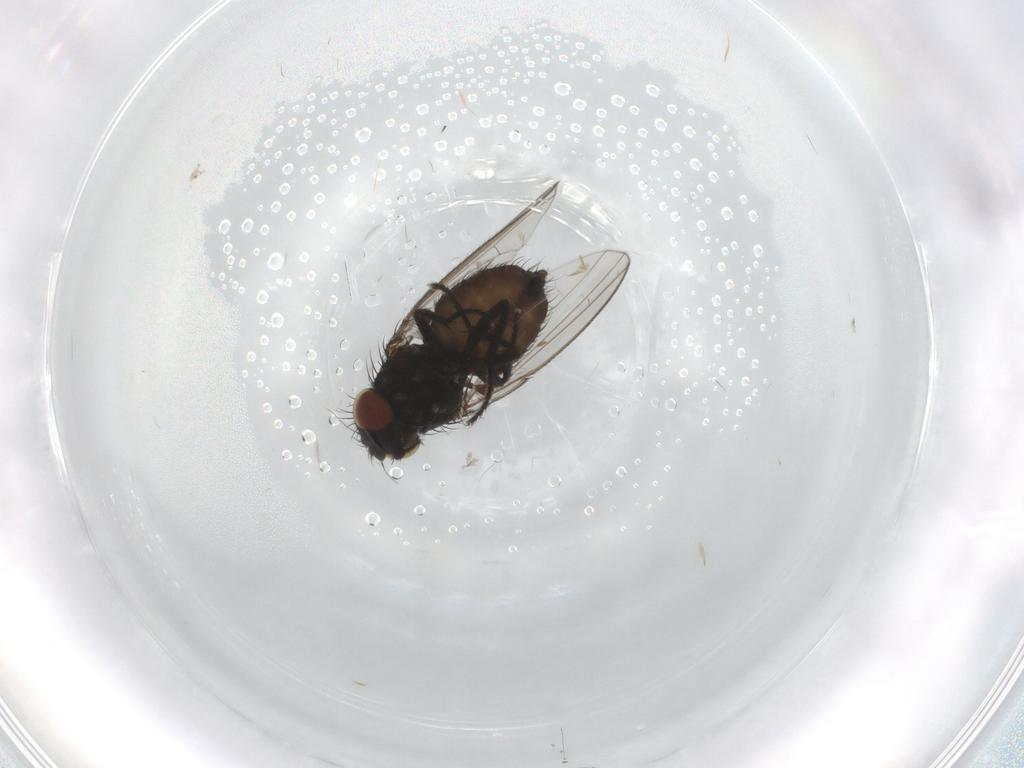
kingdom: Animalia
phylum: Arthropoda
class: Insecta
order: Diptera
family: Milichiidae
